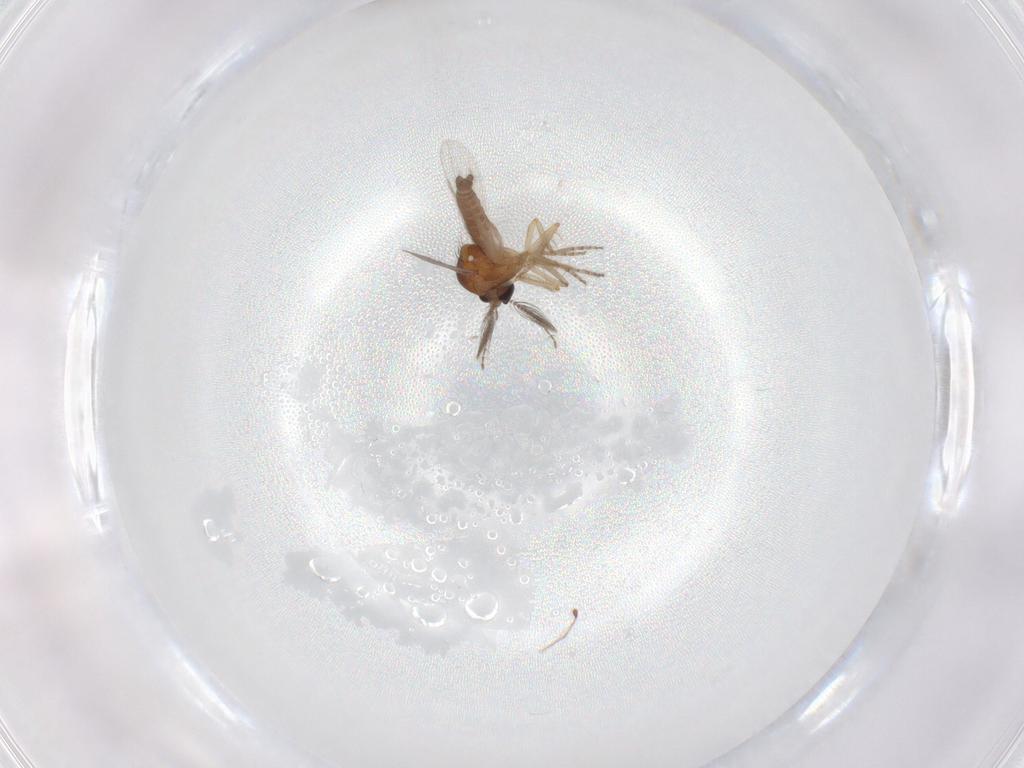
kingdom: Animalia
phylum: Arthropoda
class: Insecta
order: Diptera
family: Ceratopogonidae
